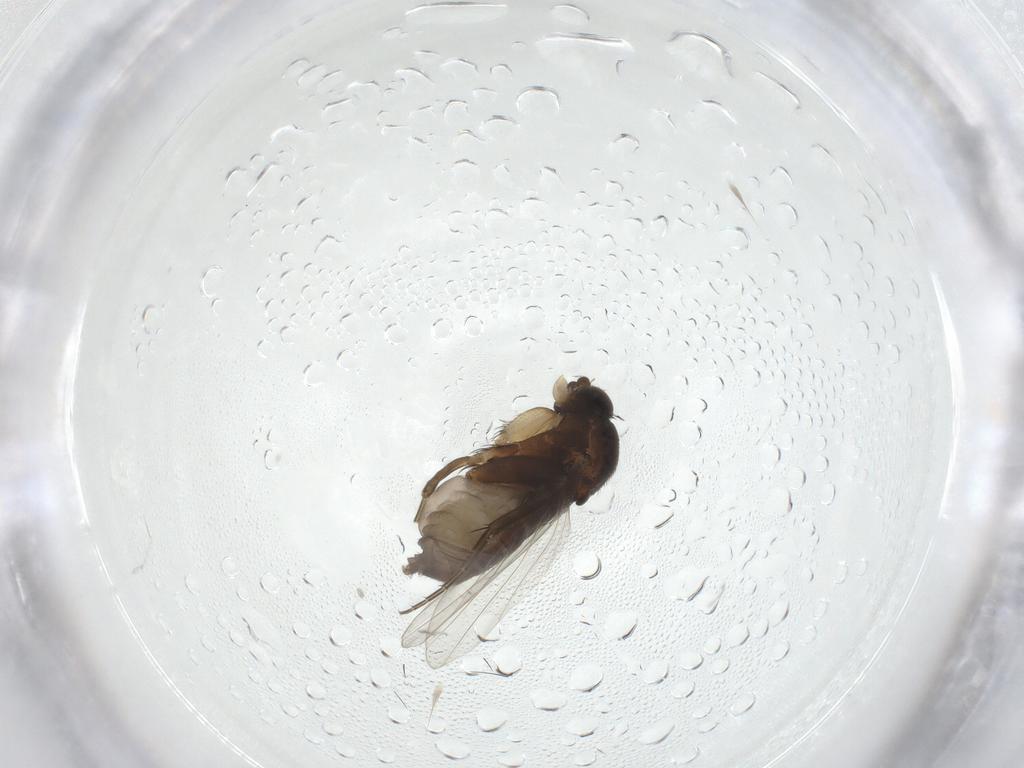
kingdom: Animalia
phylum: Arthropoda
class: Insecta
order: Diptera
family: Phoridae
